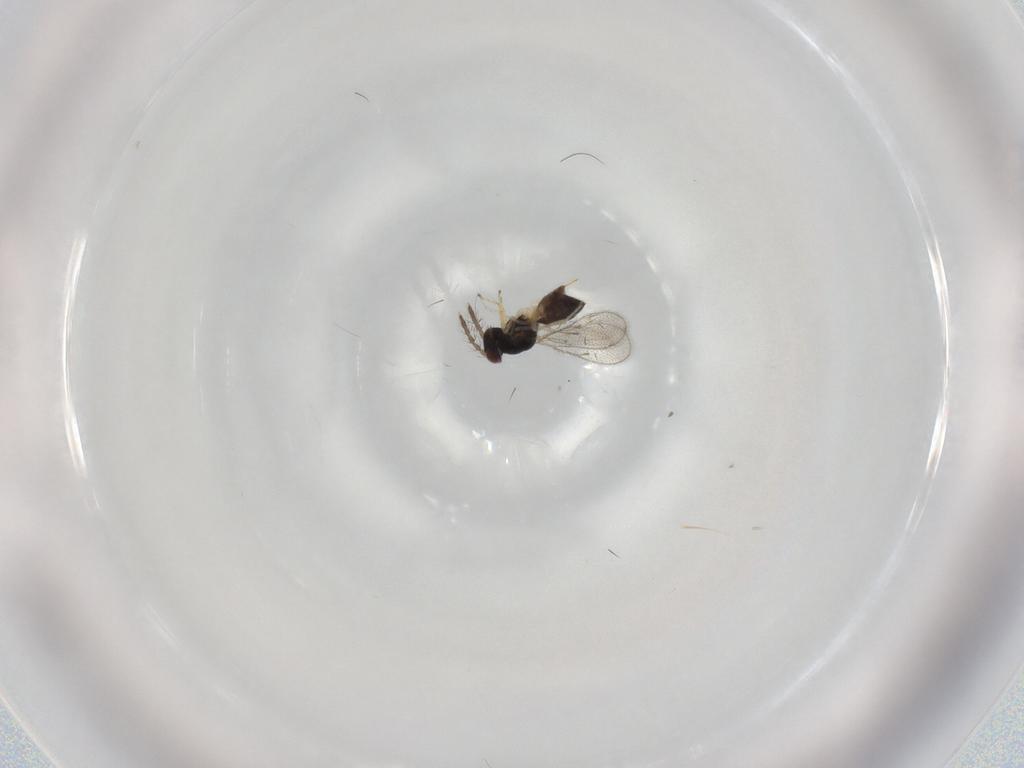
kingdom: Animalia
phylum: Arthropoda
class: Insecta
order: Hymenoptera
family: Eulophidae
